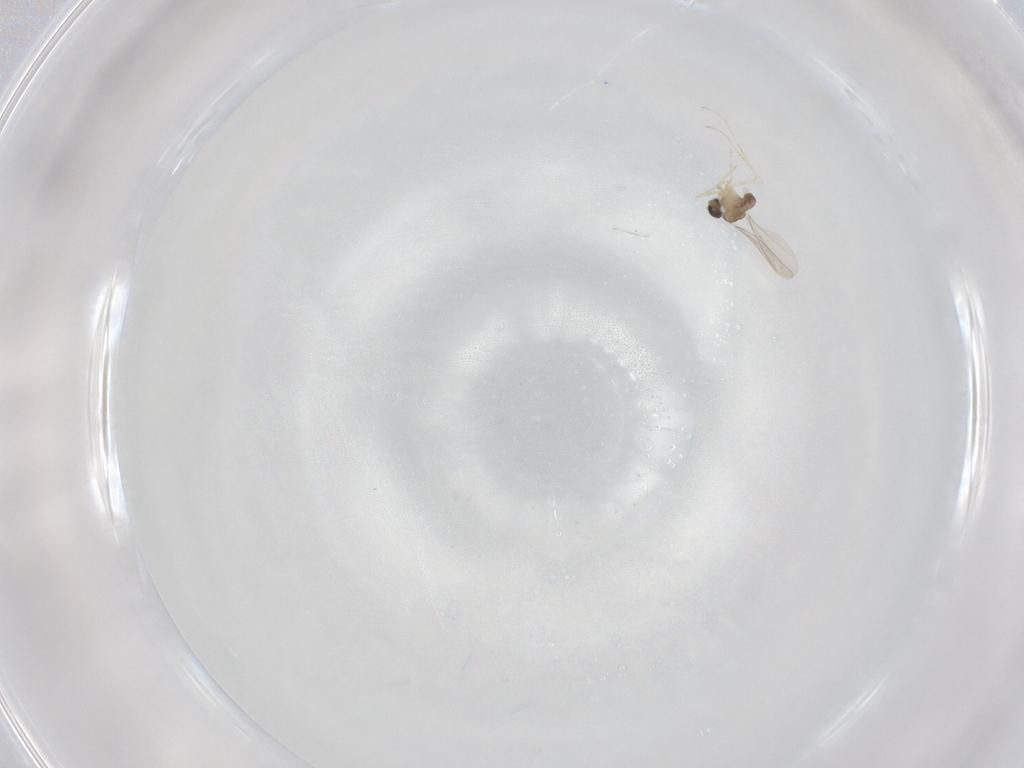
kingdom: Animalia
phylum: Arthropoda
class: Insecta
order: Diptera
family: Cecidomyiidae
